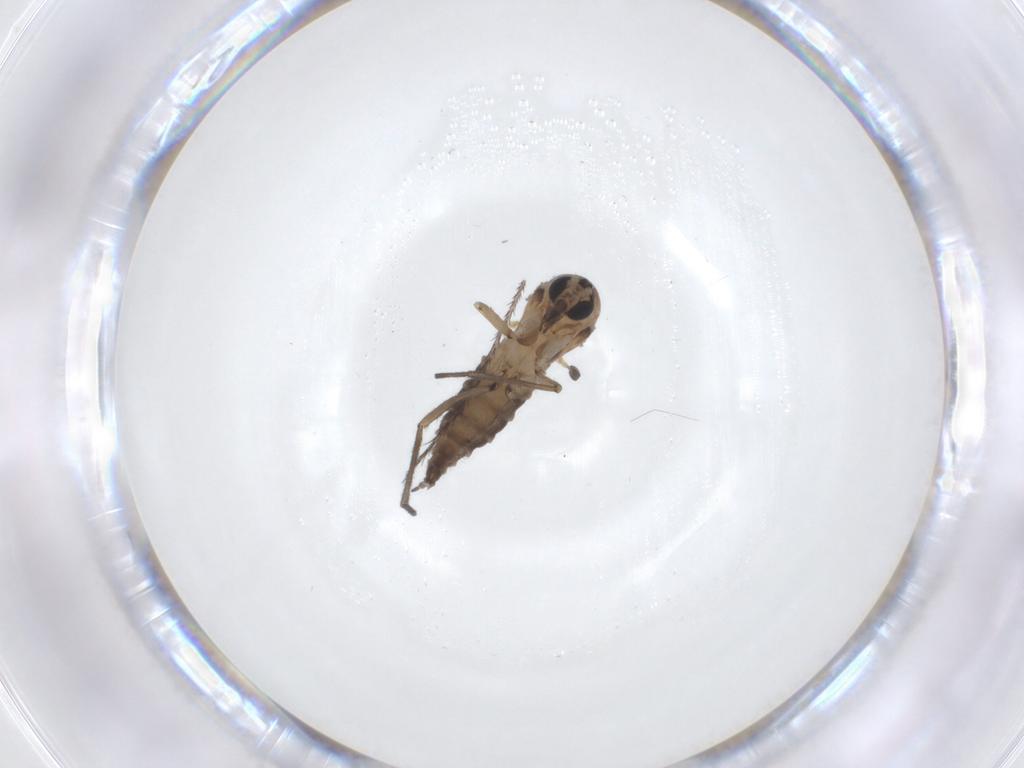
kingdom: Animalia
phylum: Arthropoda
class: Insecta
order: Diptera
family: Sciaridae
